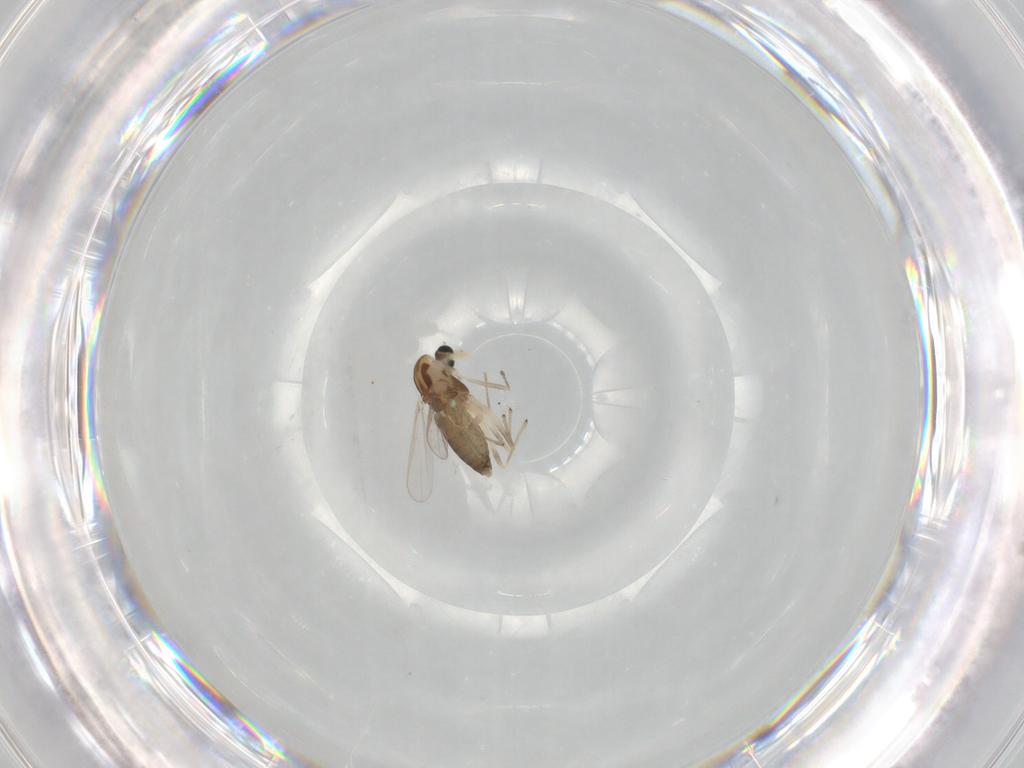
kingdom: Animalia
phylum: Arthropoda
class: Insecta
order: Diptera
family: Chironomidae
